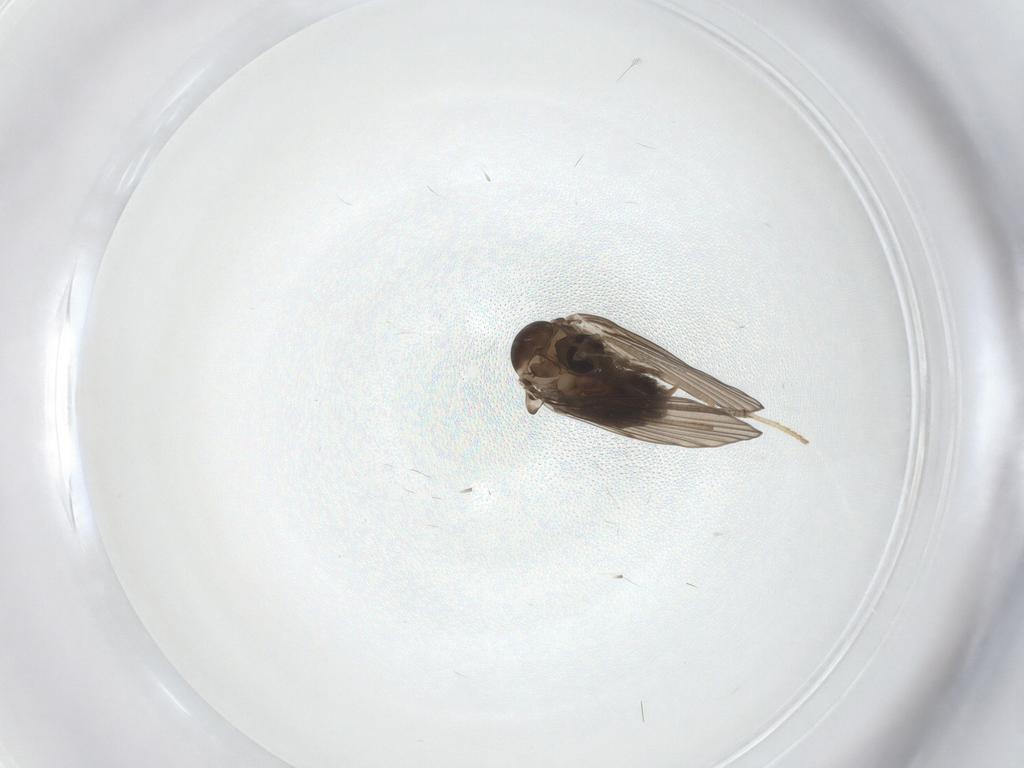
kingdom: Animalia
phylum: Arthropoda
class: Insecta
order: Diptera
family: Psychodidae
